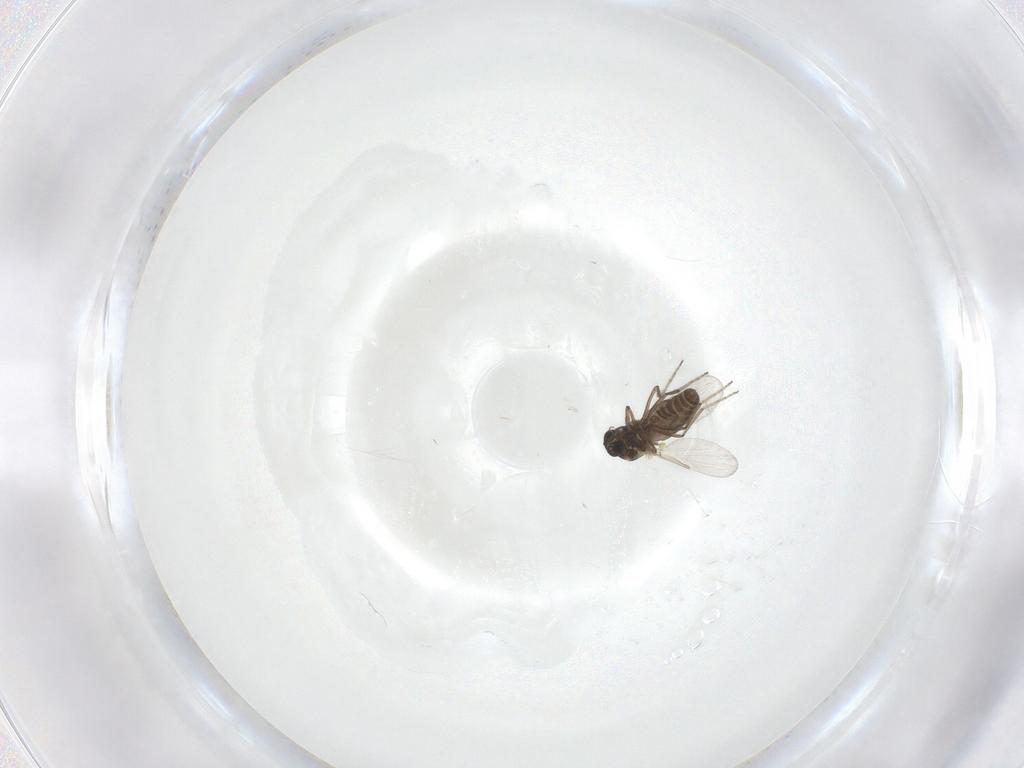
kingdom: Animalia
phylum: Arthropoda
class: Insecta
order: Diptera
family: Ceratopogonidae
